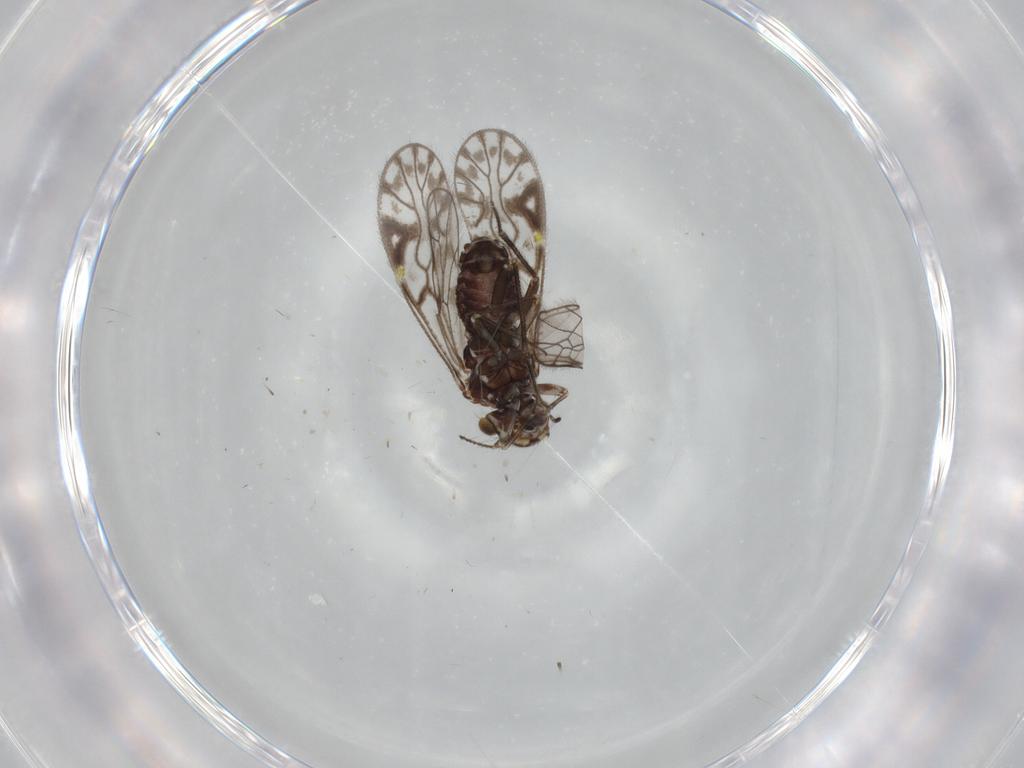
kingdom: Animalia
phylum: Arthropoda
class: Insecta
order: Psocodea
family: Cladiopsocidae
